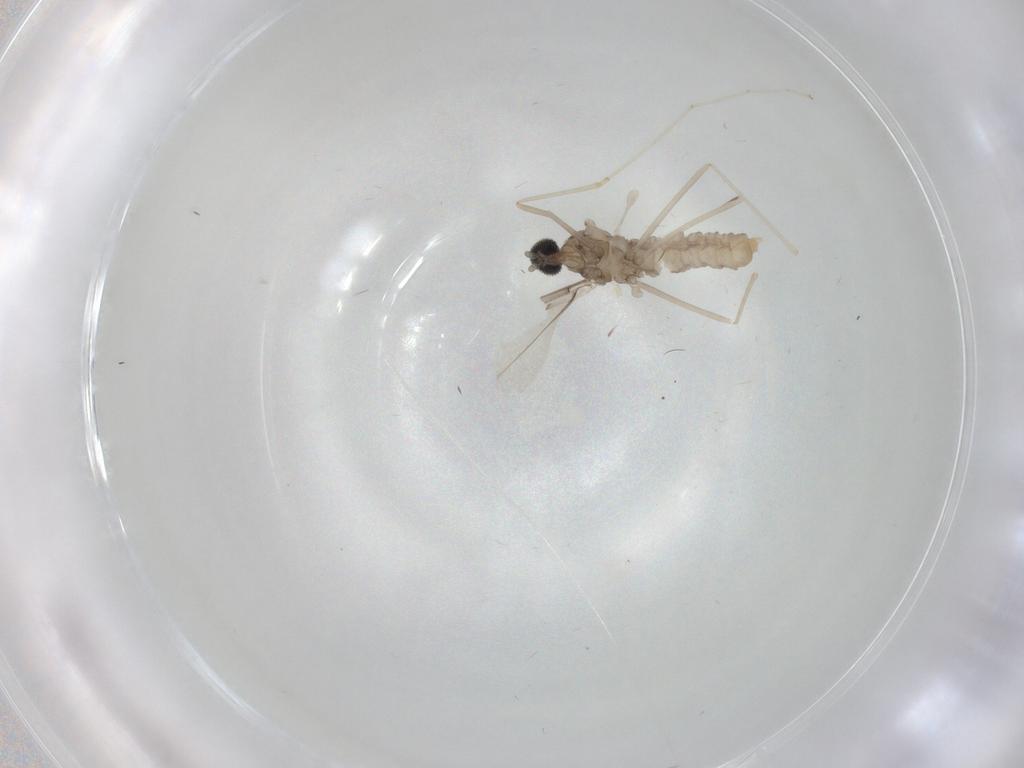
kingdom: Animalia
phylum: Arthropoda
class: Insecta
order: Diptera
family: Cecidomyiidae
